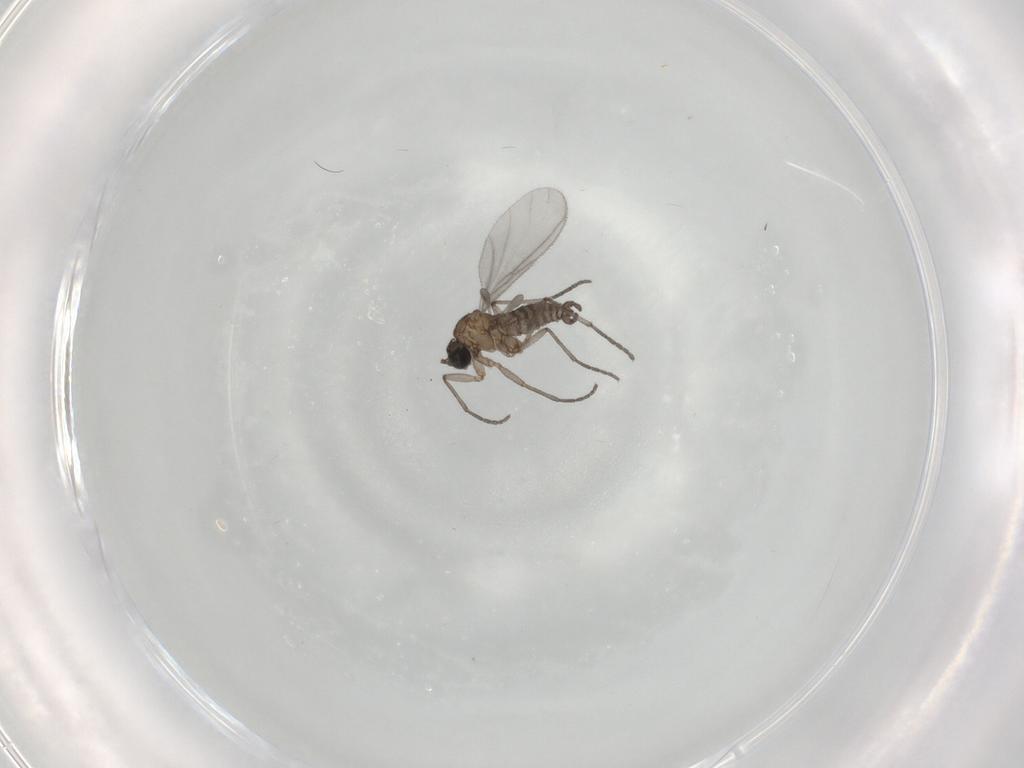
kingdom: Animalia
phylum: Arthropoda
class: Insecta
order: Diptera
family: Sciaridae
